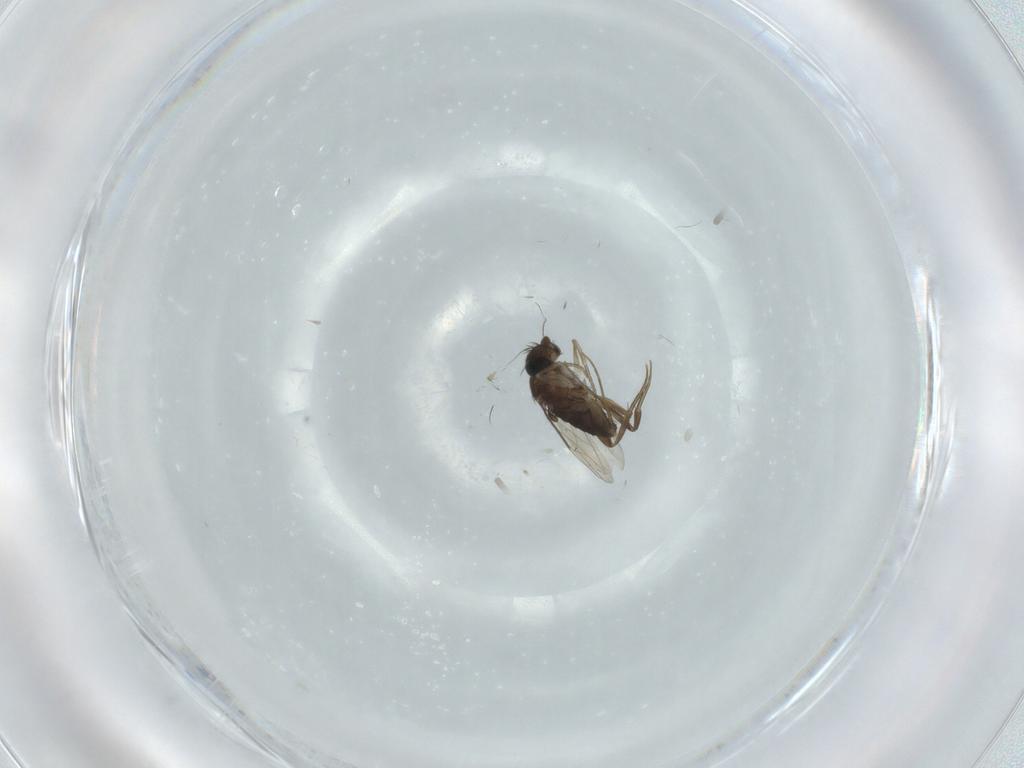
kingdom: Animalia
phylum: Arthropoda
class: Insecta
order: Diptera
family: Phoridae
